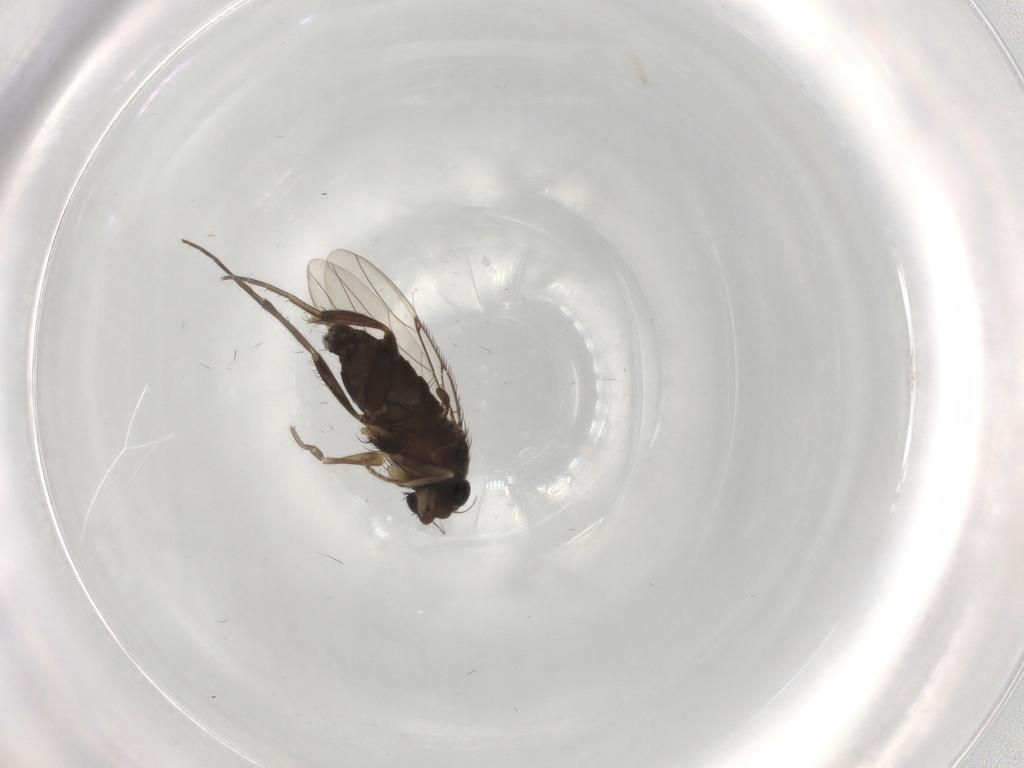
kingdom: Animalia
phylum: Arthropoda
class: Insecta
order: Diptera
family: Phoridae
